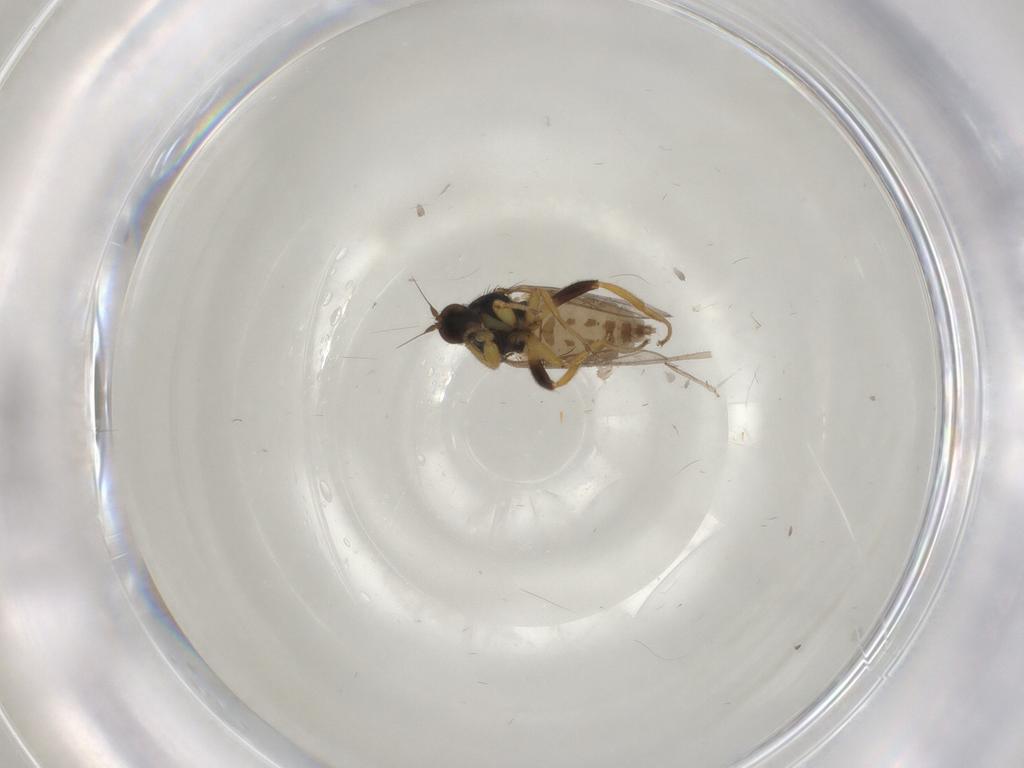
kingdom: Animalia
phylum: Arthropoda
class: Insecta
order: Diptera
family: Hybotidae
